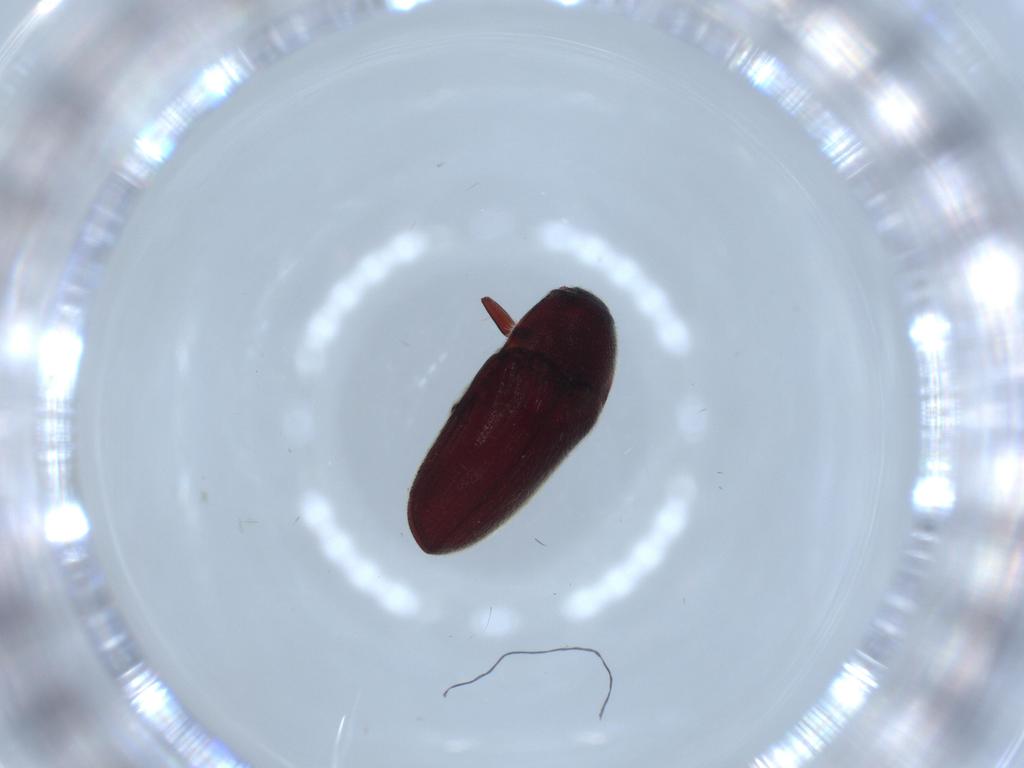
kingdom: Animalia
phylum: Arthropoda
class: Insecta
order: Coleoptera
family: Throscidae
